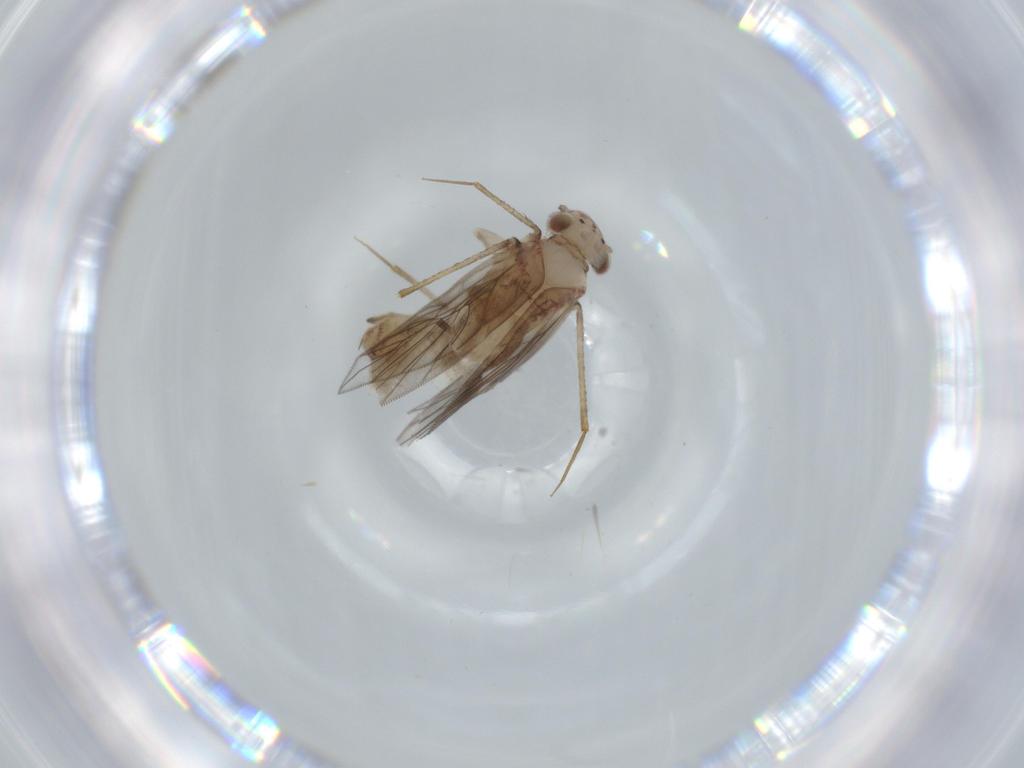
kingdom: Animalia
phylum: Arthropoda
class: Insecta
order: Psocodea
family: Lepidopsocidae
